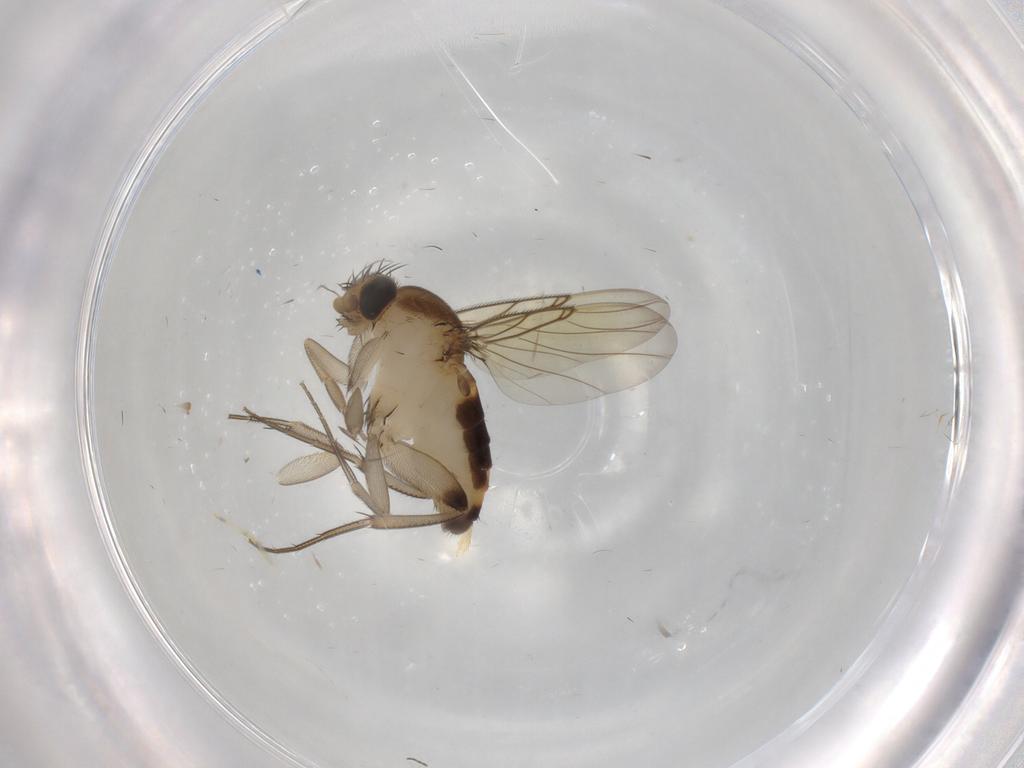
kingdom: Animalia
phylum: Arthropoda
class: Insecta
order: Diptera
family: Phoridae
